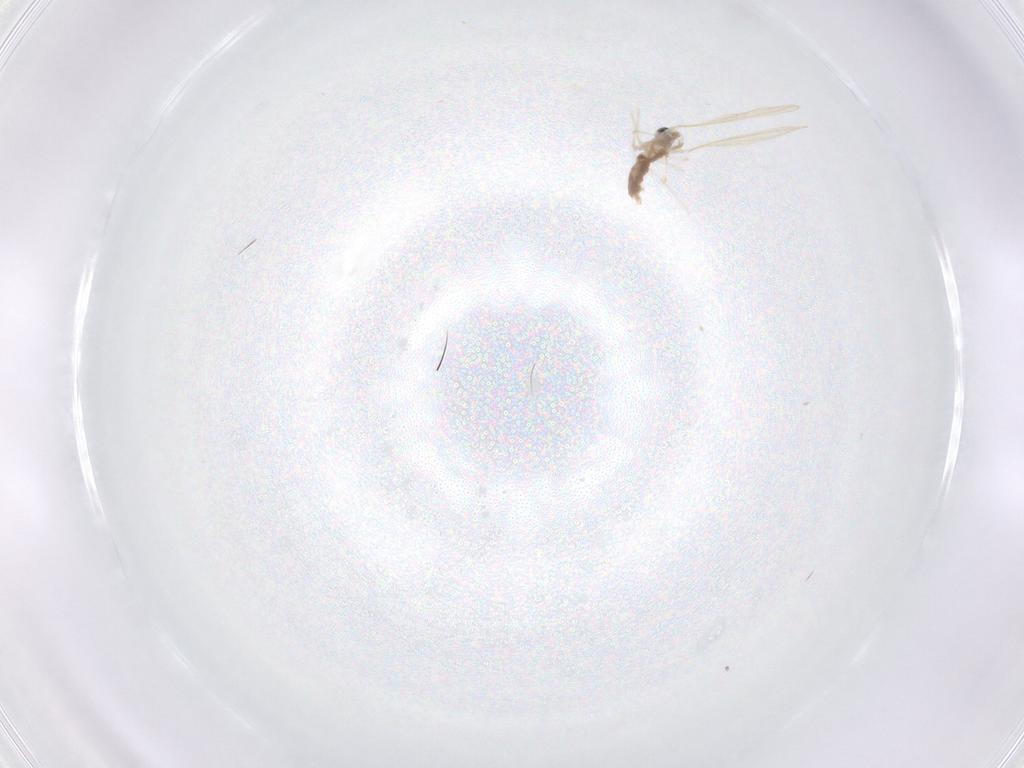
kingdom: Animalia
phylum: Arthropoda
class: Insecta
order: Diptera
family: Cecidomyiidae
